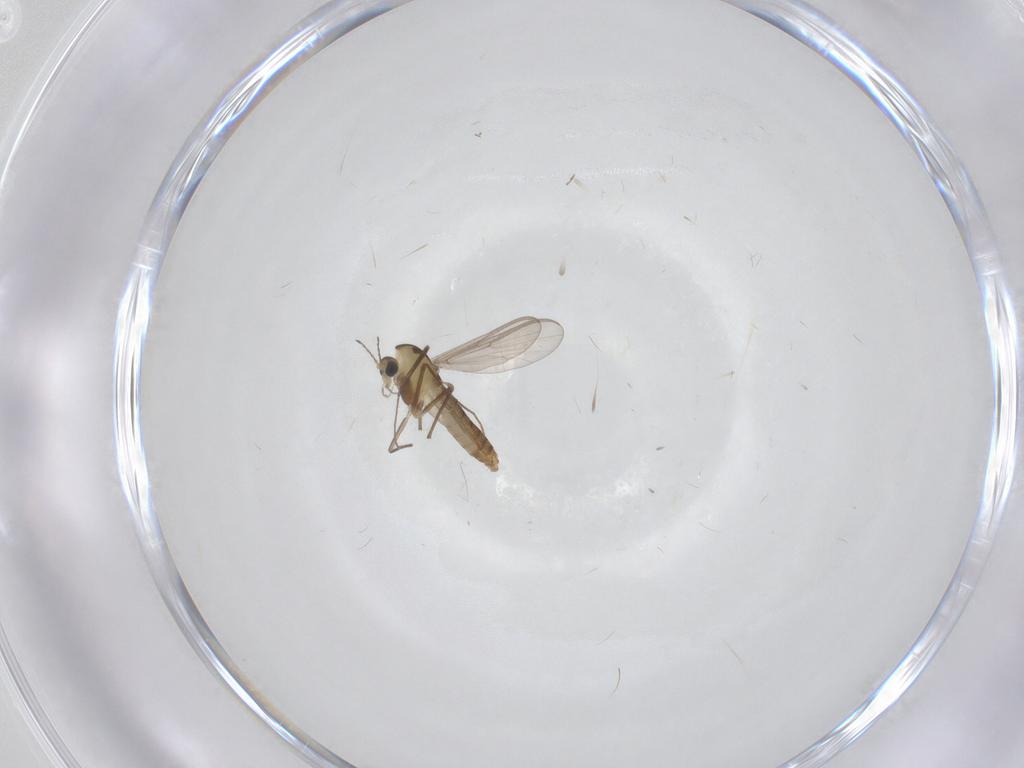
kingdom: Animalia
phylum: Arthropoda
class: Insecta
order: Diptera
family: Chironomidae
